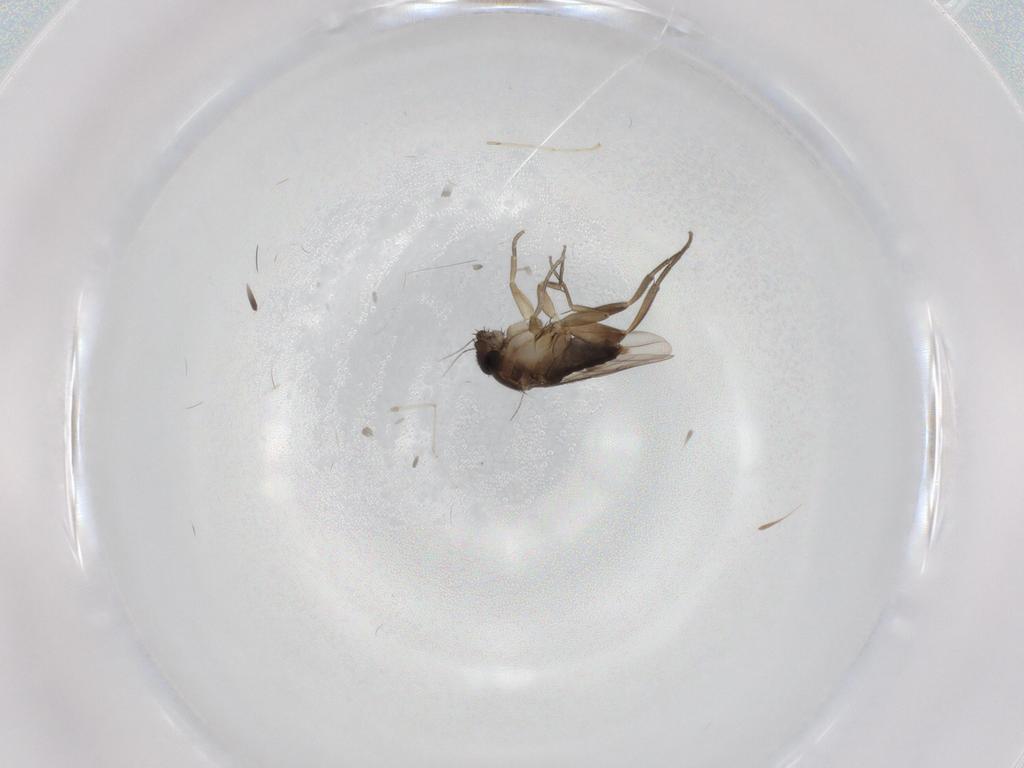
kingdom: Animalia
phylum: Arthropoda
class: Insecta
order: Diptera
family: Phoridae
